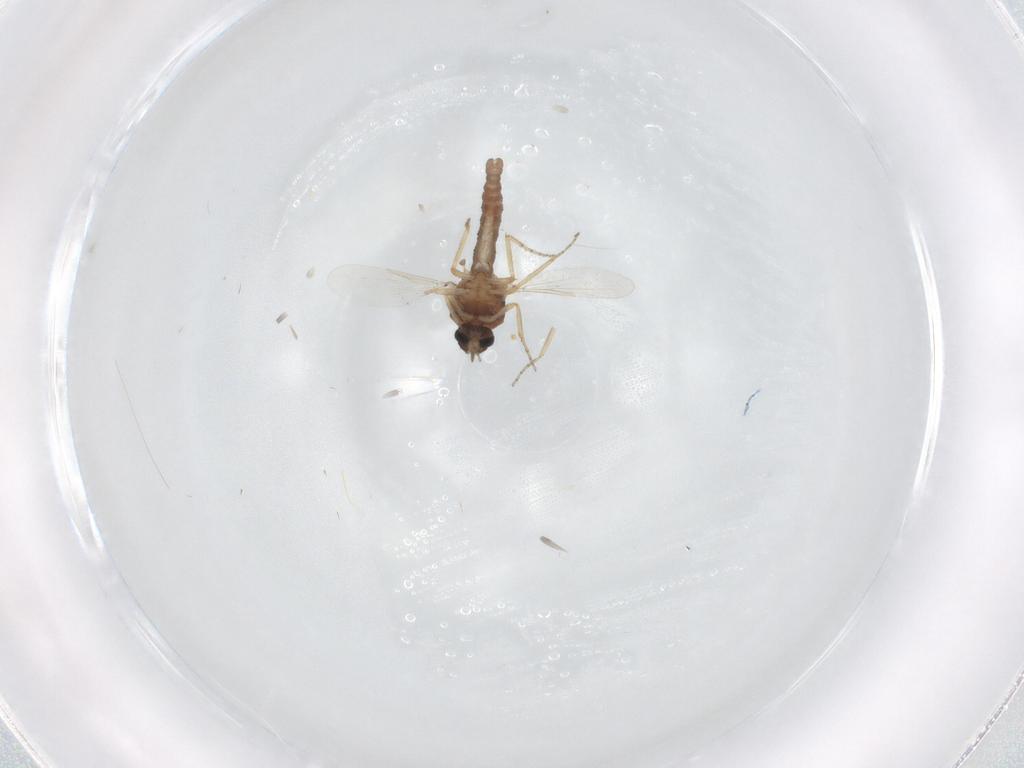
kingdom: Animalia
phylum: Arthropoda
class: Insecta
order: Diptera
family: Ceratopogonidae
